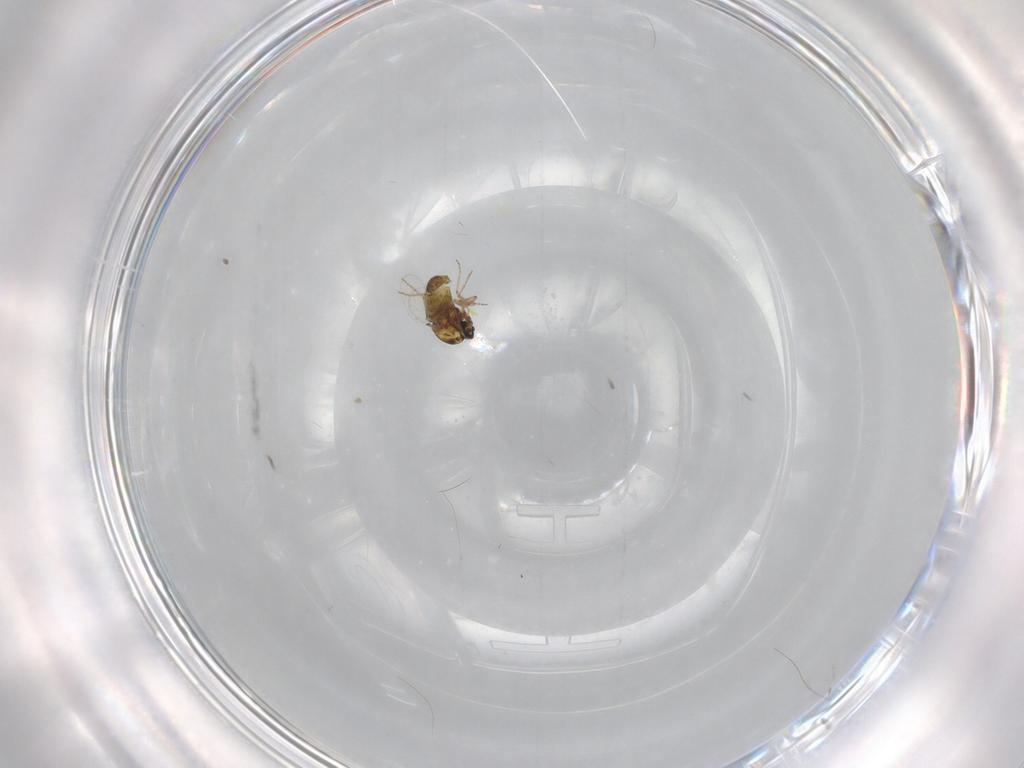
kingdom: Animalia
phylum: Arthropoda
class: Insecta
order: Diptera
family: Ceratopogonidae
